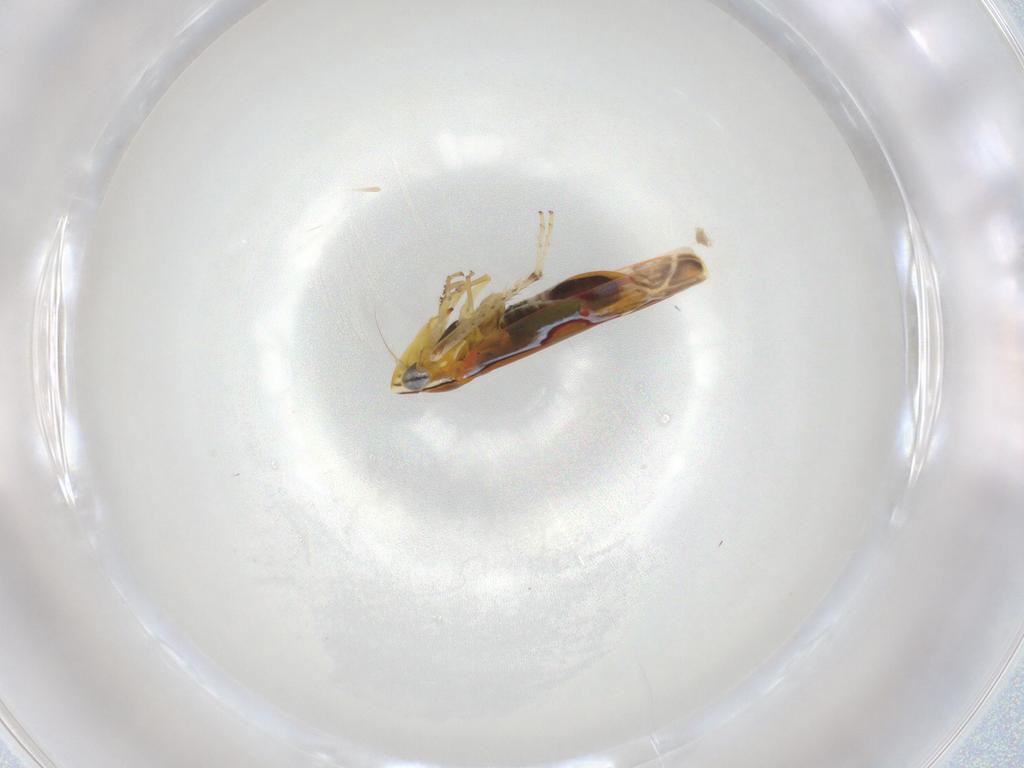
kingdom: Animalia
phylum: Arthropoda
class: Insecta
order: Hemiptera
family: Cicadellidae
